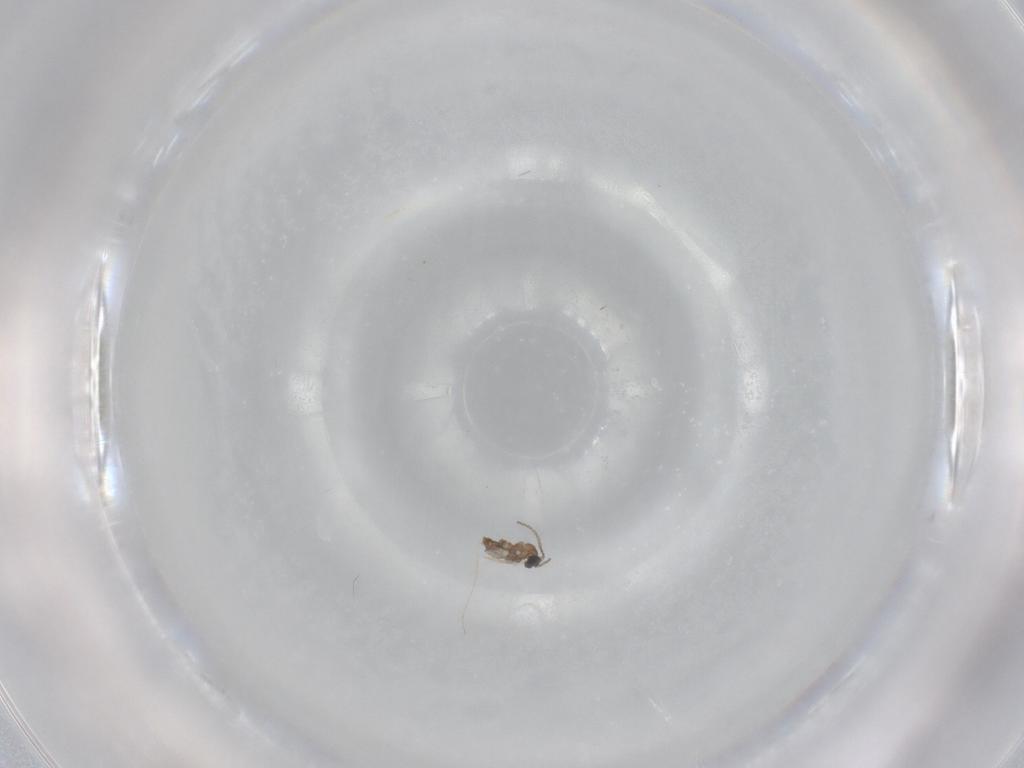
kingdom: Animalia
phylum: Arthropoda
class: Insecta
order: Diptera
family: Cecidomyiidae
